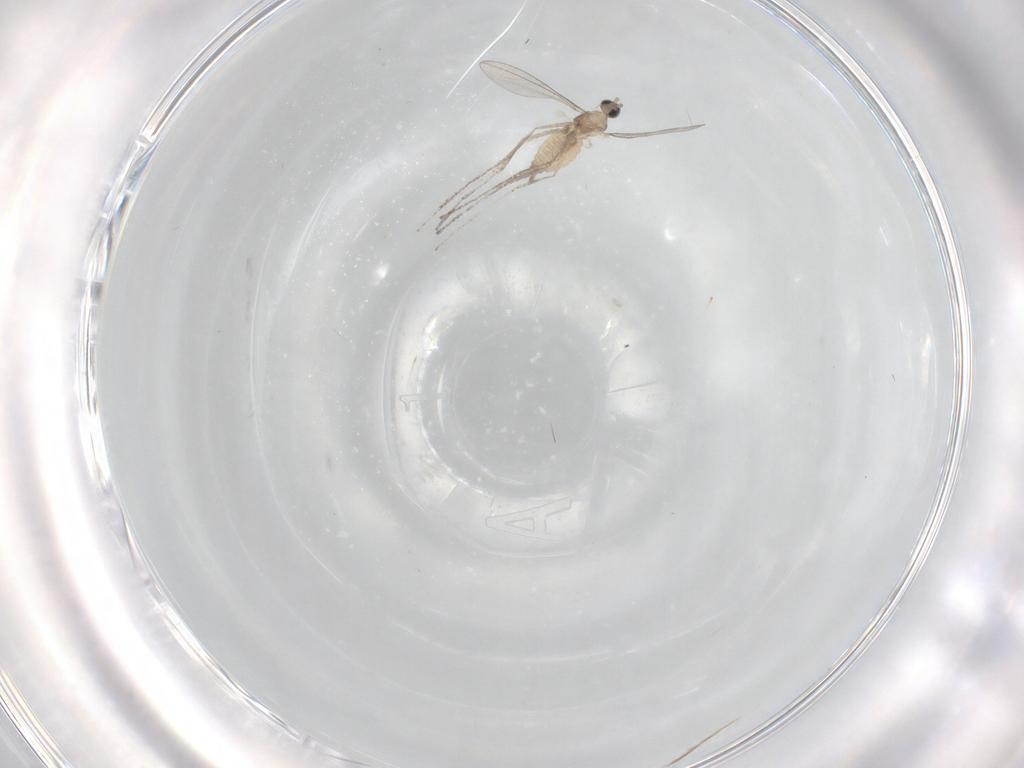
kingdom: Animalia
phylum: Arthropoda
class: Insecta
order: Diptera
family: Cecidomyiidae
